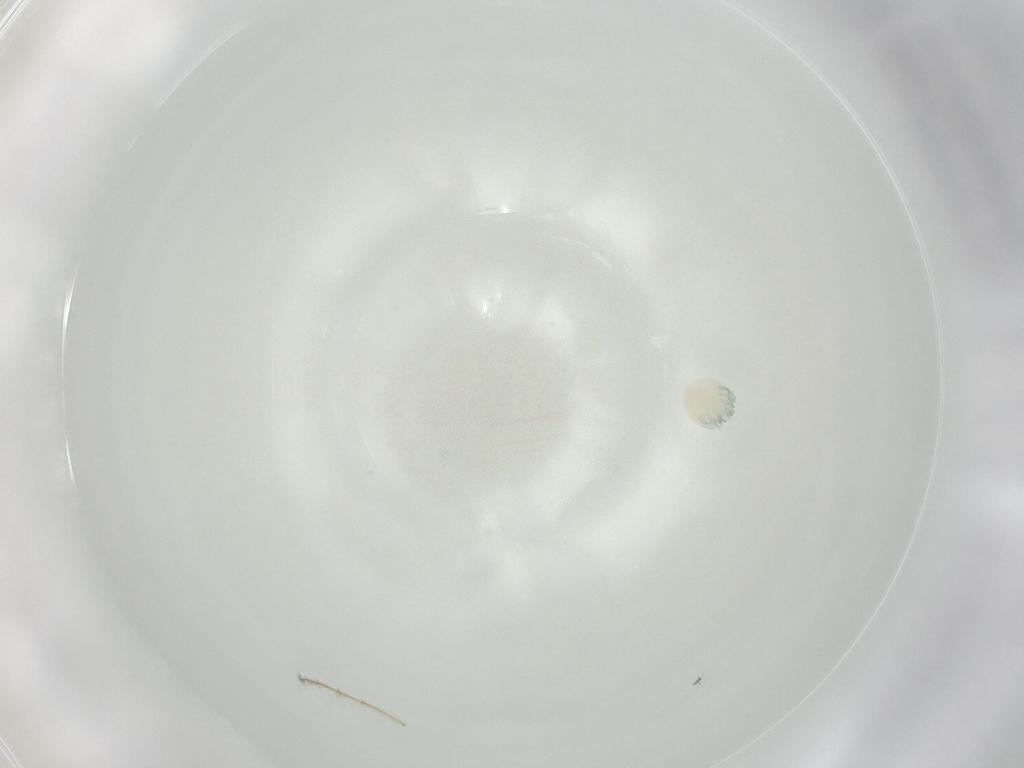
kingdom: Animalia
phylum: Arthropoda
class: Arachnida
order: Trombidiformes
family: Arrenuridae
